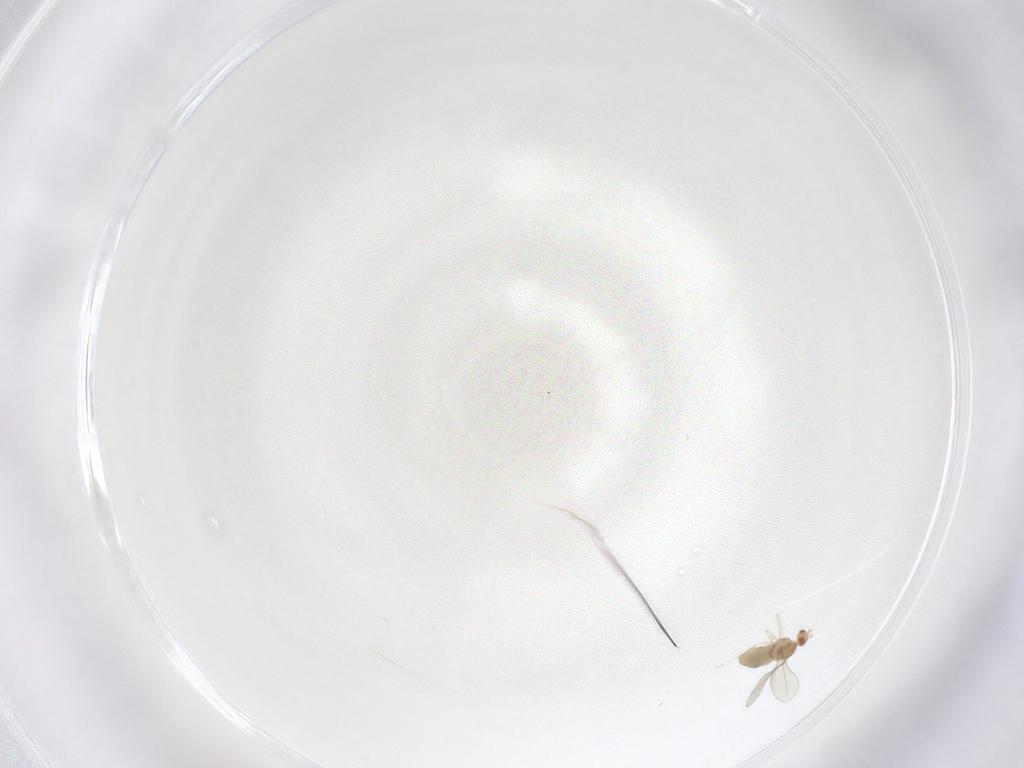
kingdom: Animalia
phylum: Arthropoda
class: Insecta
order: Diptera
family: Cecidomyiidae
